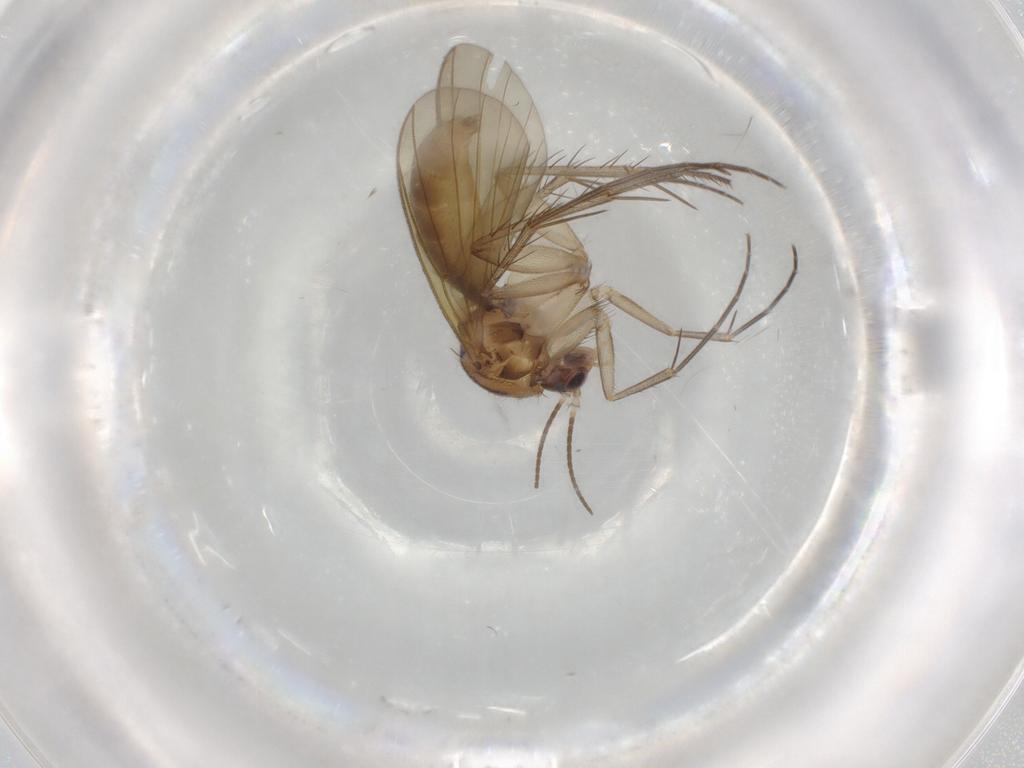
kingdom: Animalia
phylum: Arthropoda
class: Insecta
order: Diptera
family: Mycetophilidae
